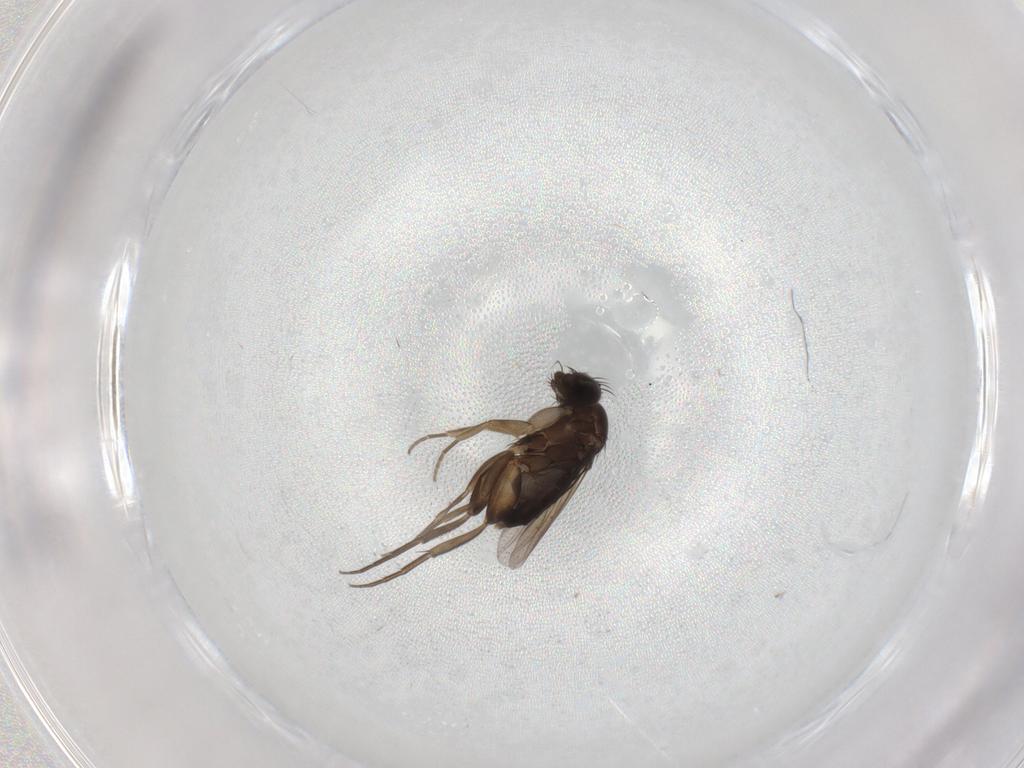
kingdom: Animalia
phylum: Arthropoda
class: Insecta
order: Diptera
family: Phoridae
